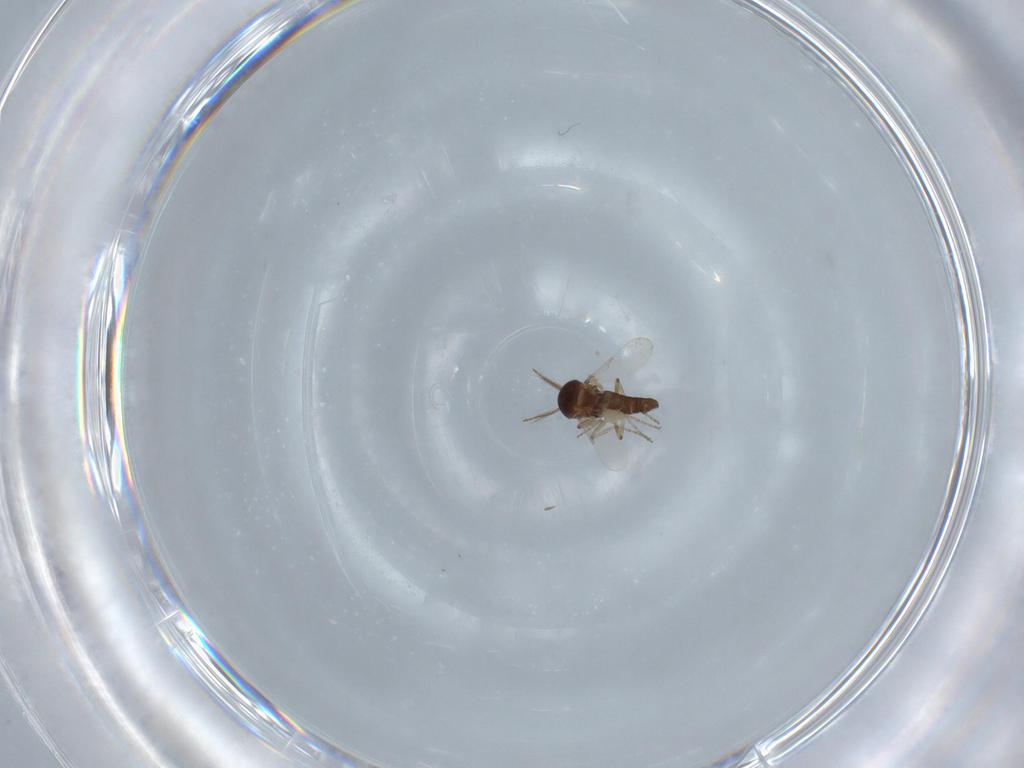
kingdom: Animalia
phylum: Arthropoda
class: Insecta
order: Diptera
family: Ceratopogonidae
